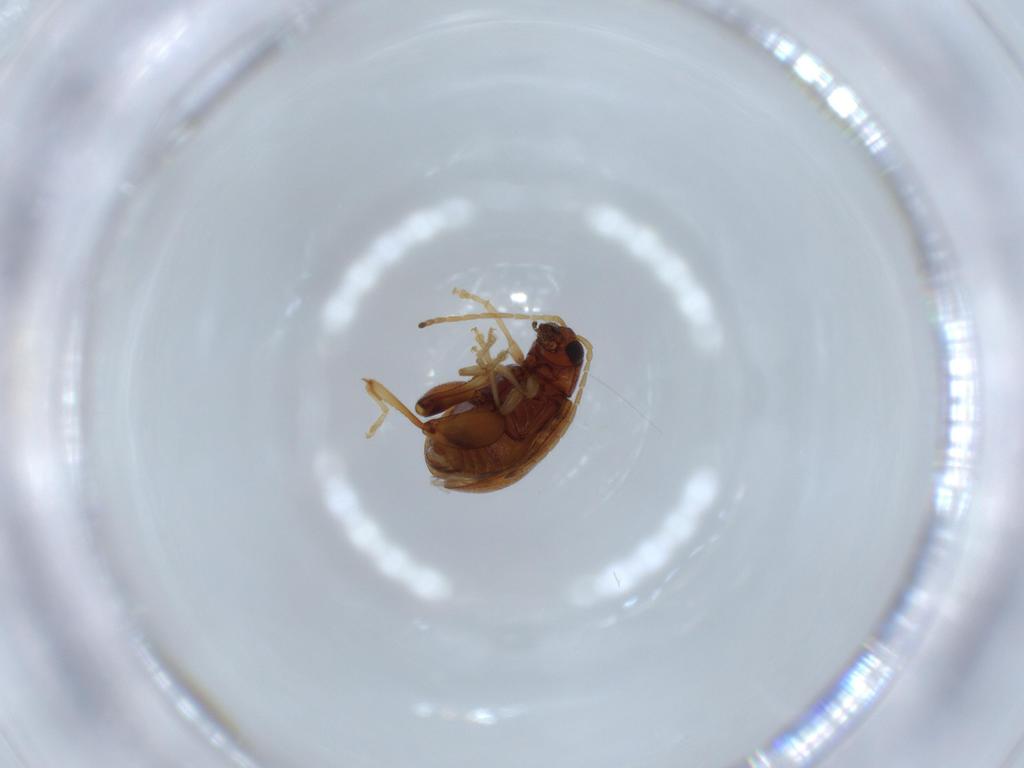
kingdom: Animalia
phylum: Arthropoda
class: Insecta
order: Coleoptera
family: Chrysomelidae
